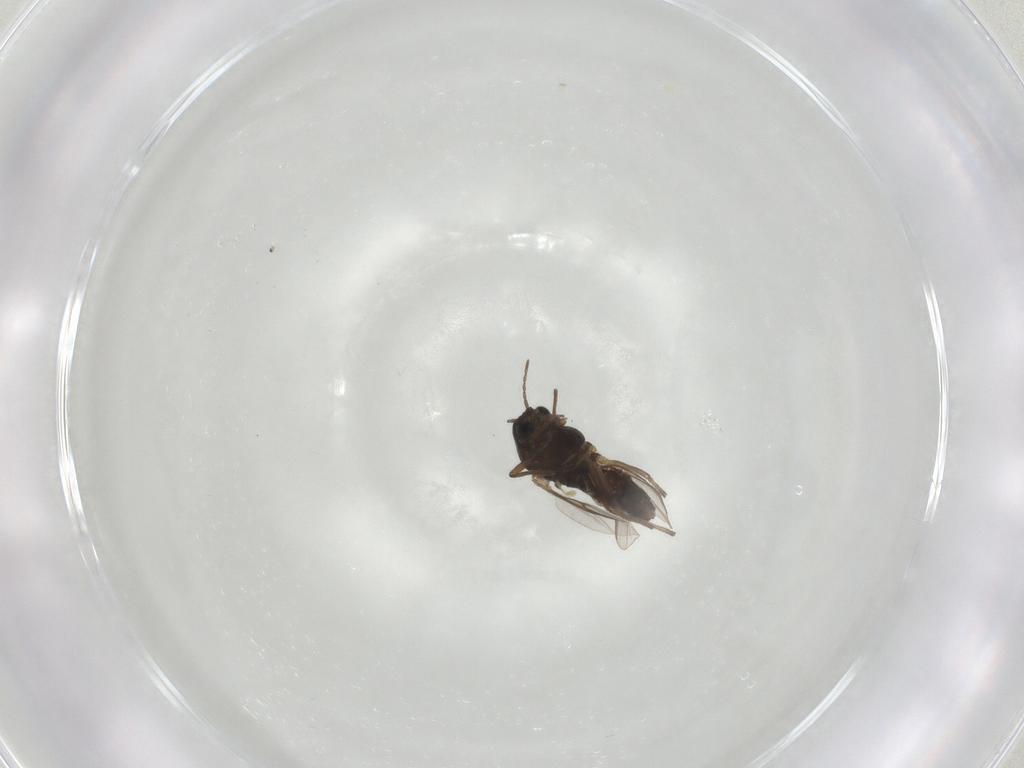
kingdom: Animalia
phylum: Arthropoda
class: Insecta
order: Diptera
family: Chironomidae
